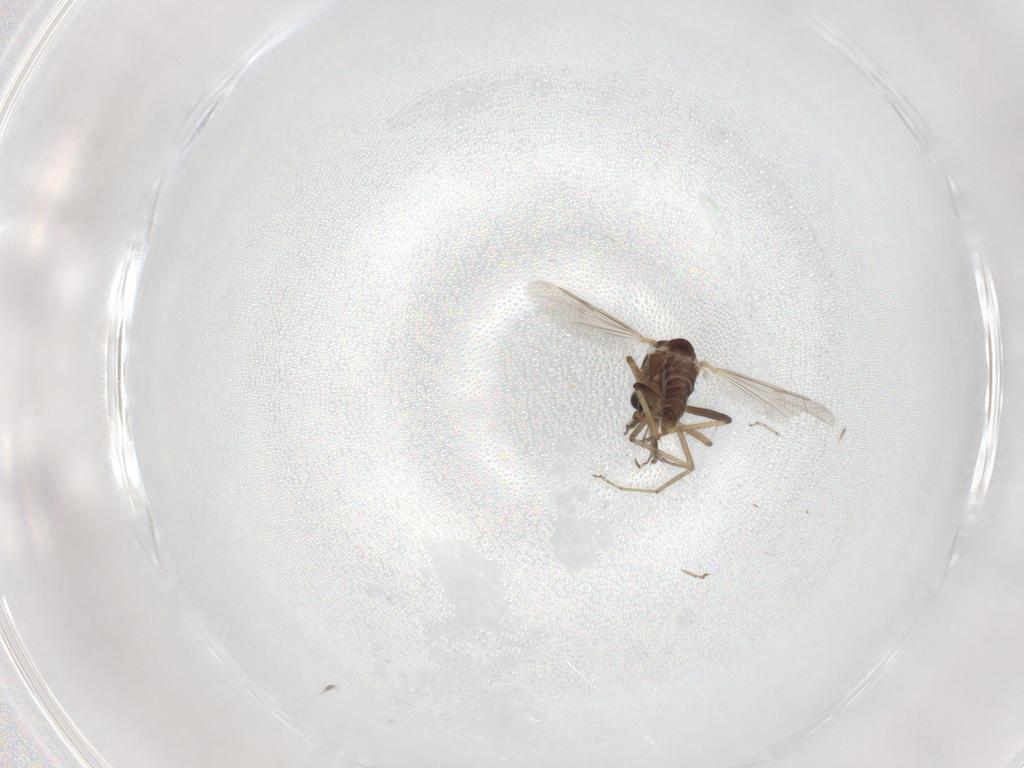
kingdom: Animalia
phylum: Arthropoda
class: Insecta
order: Diptera
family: Ceratopogonidae
